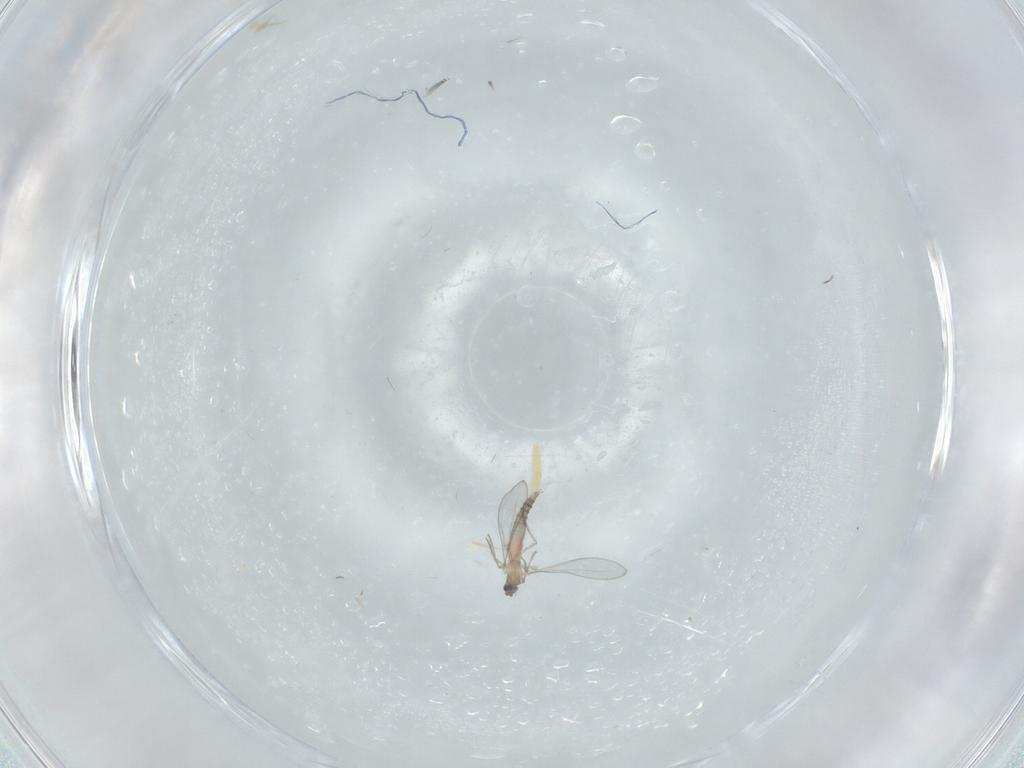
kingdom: Animalia
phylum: Arthropoda
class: Insecta
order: Diptera
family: Cecidomyiidae
